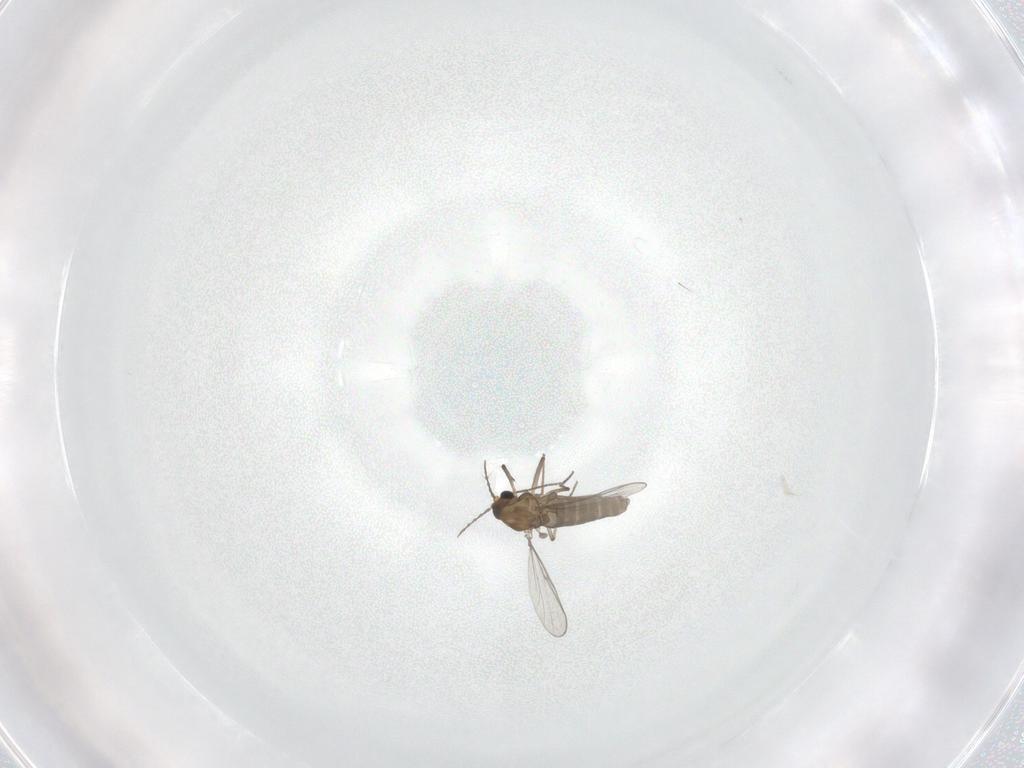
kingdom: Animalia
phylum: Arthropoda
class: Insecta
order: Diptera
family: Chironomidae
